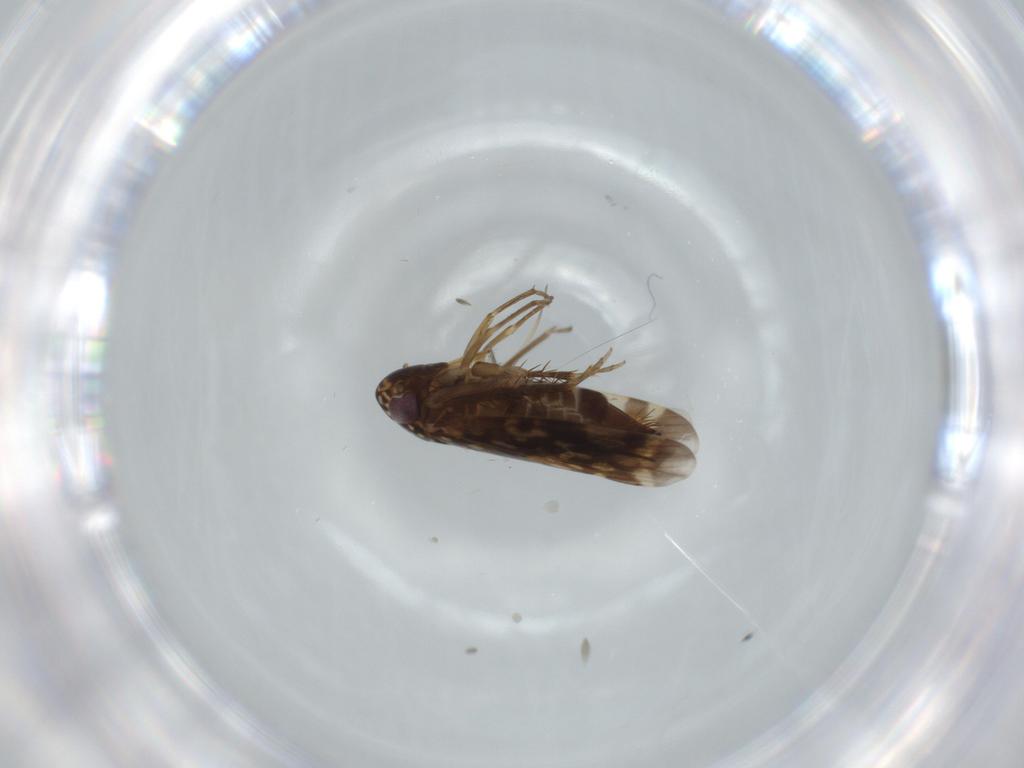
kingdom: Animalia
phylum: Arthropoda
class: Insecta
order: Hemiptera
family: Cicadellidae
